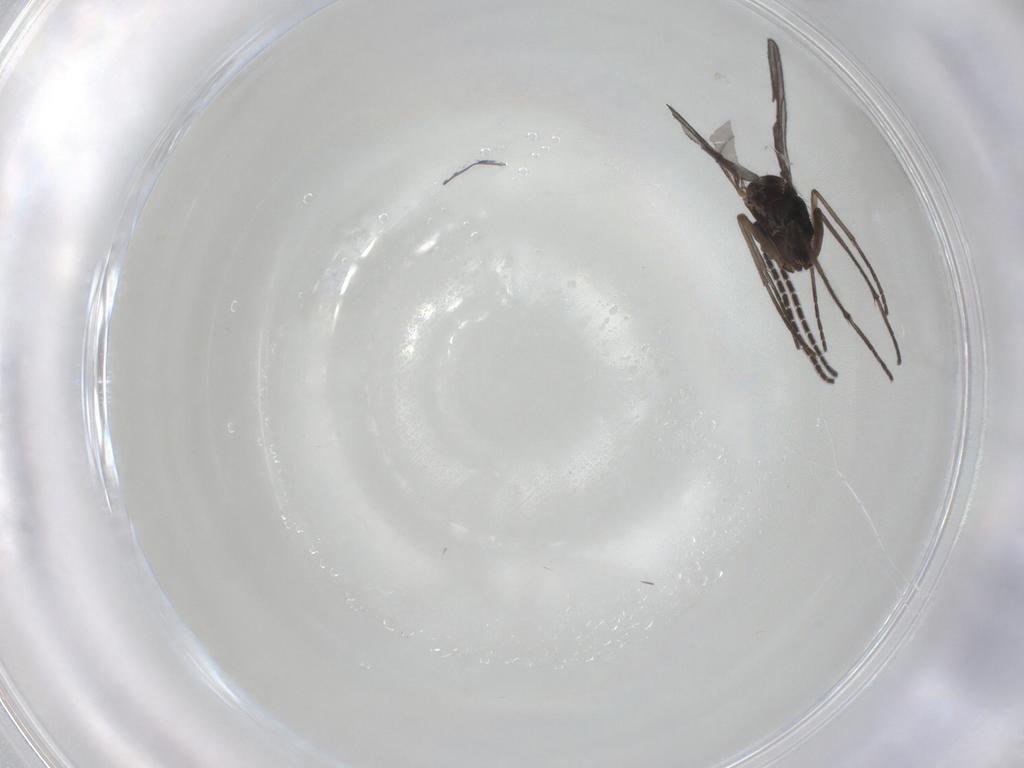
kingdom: Animalia
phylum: Arthropoda
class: Insecta
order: Diptera
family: Sciaridae
